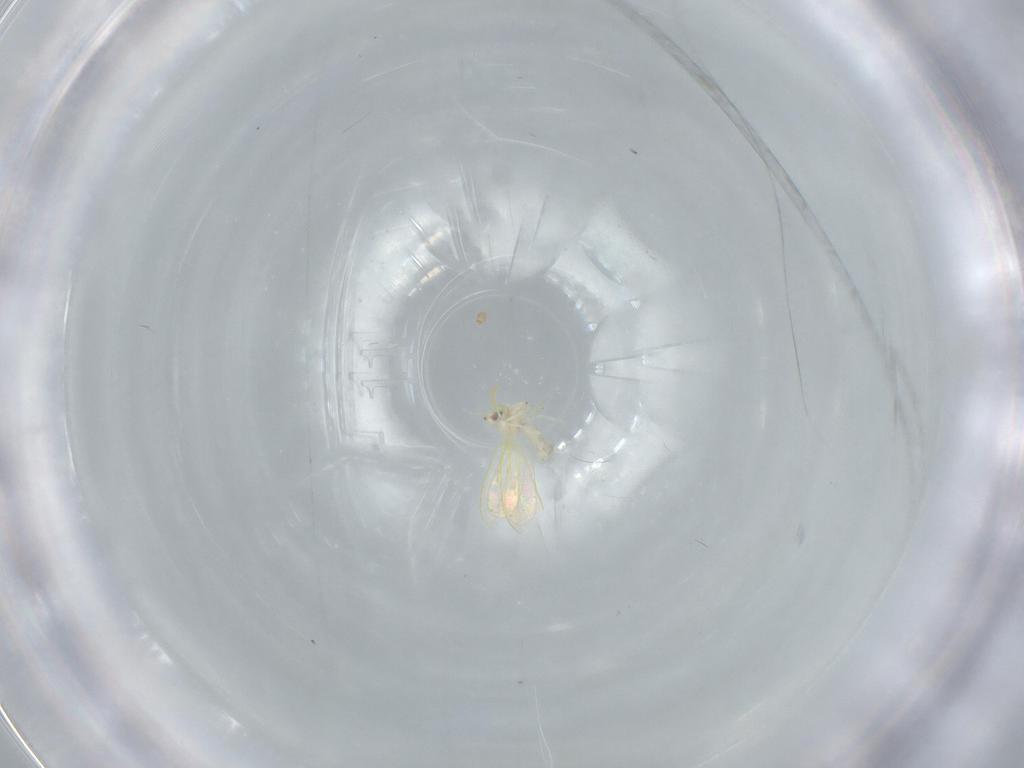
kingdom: Animalia
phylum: Arthropoda
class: Insecta
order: Hemiptera
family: Aleyrodidae
